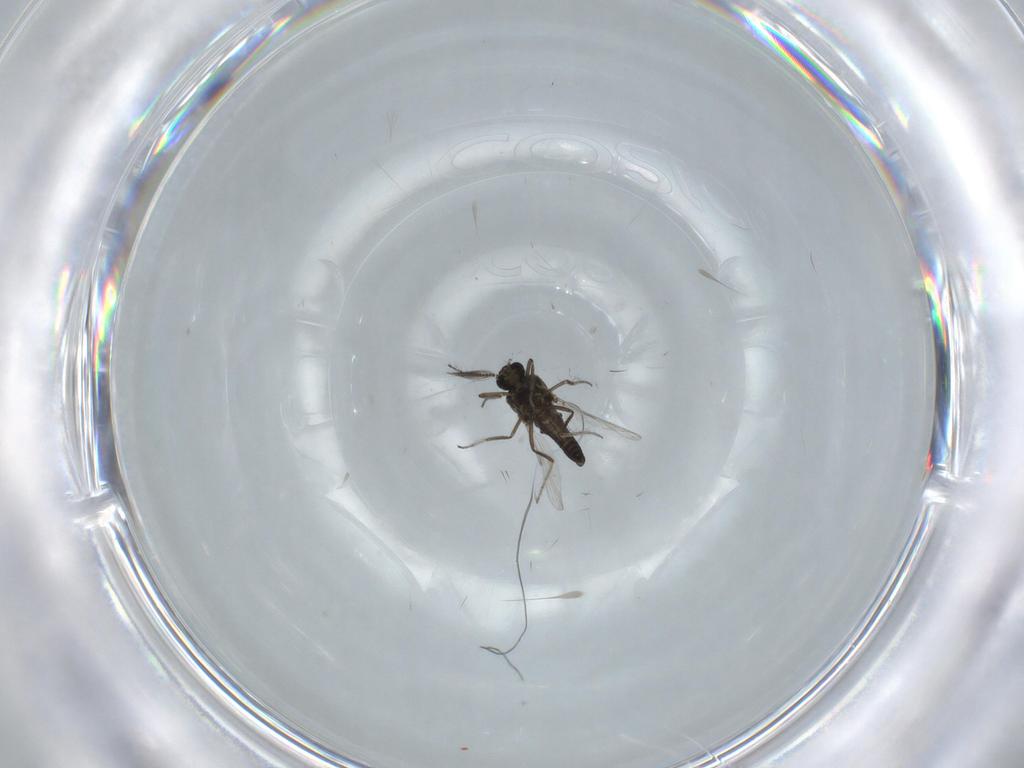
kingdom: Animalia
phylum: Arthropoda
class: Insecta
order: Diptera
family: Ceratopogonidae
